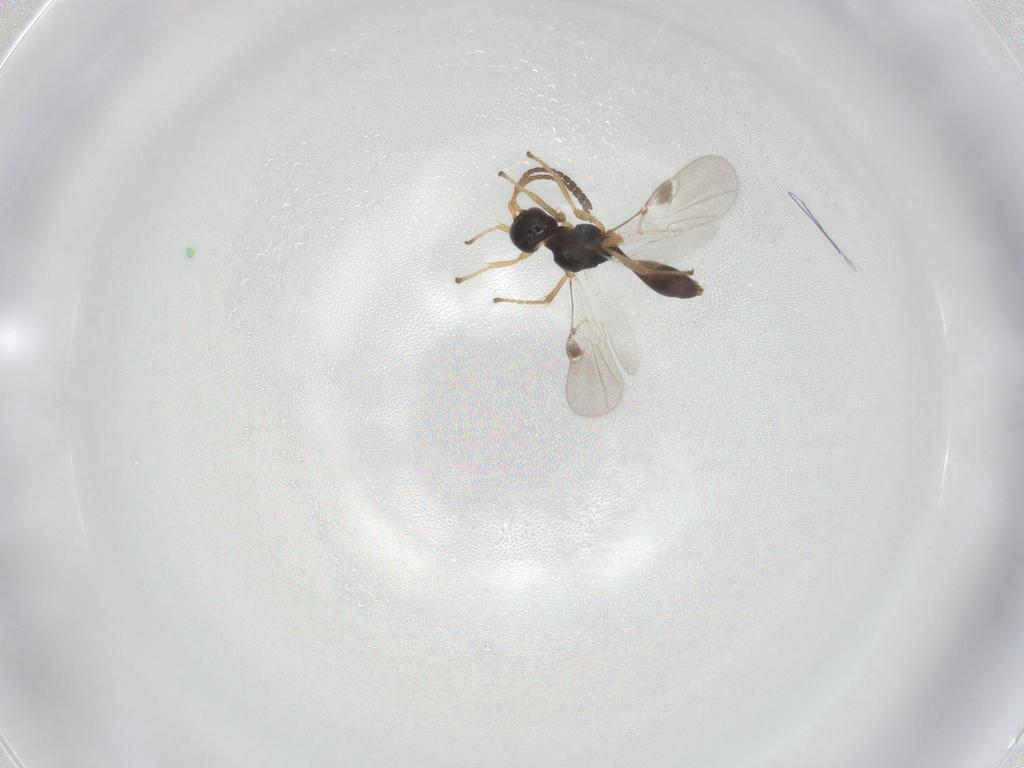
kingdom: Animalia
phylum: Arthropoda
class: Insecta
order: Hymenoptera
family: Braconidae
